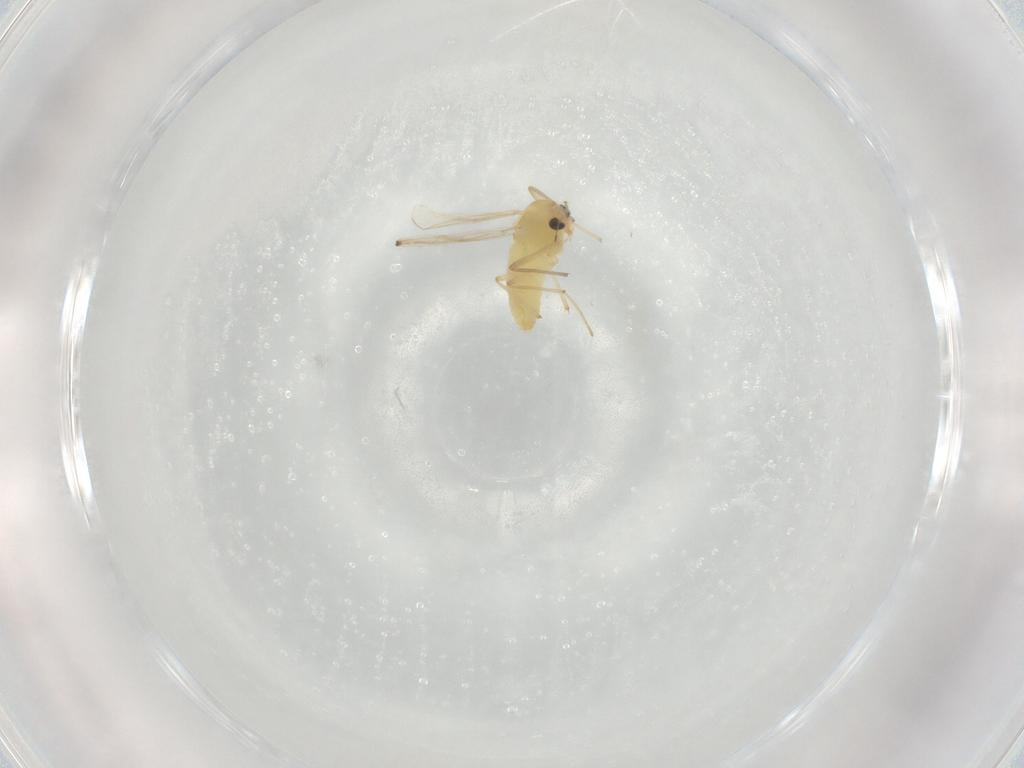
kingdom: Animalia
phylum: Arthropoda
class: Insecta
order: Diptera
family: Chironomidae
